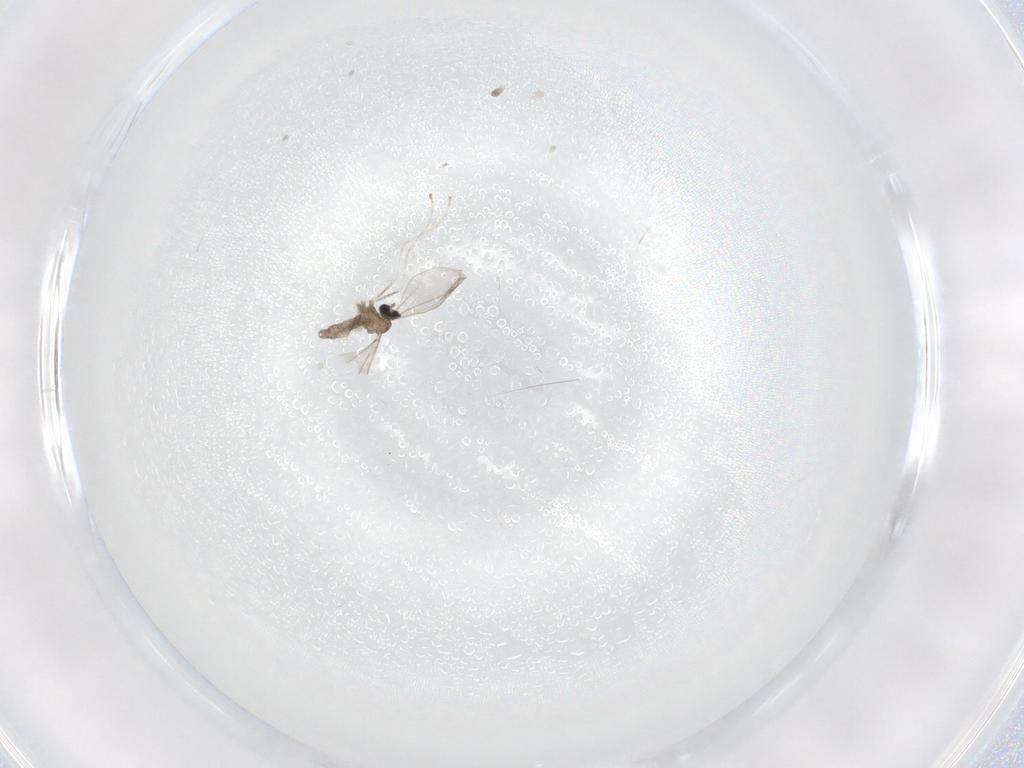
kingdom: Animalia
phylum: Arthropoda
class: Insecta
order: Diptera
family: Cecidomyiidae
